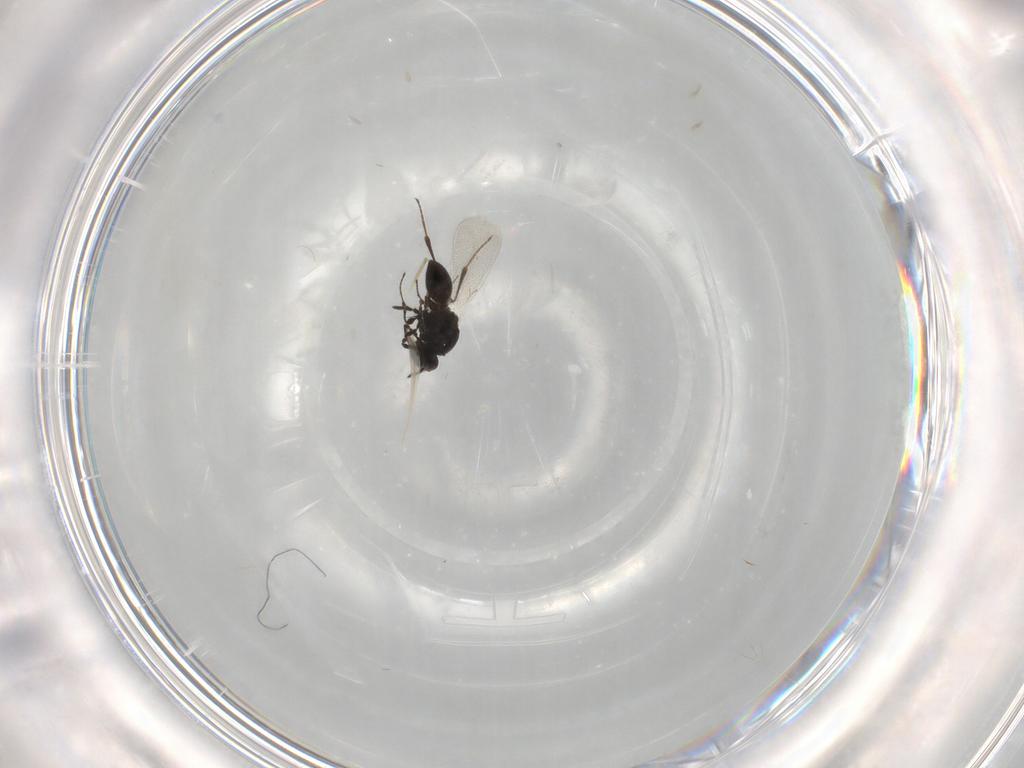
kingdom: Animalia
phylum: Arthropoda
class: Insecta
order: Hymenoptera
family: Platygastridae
